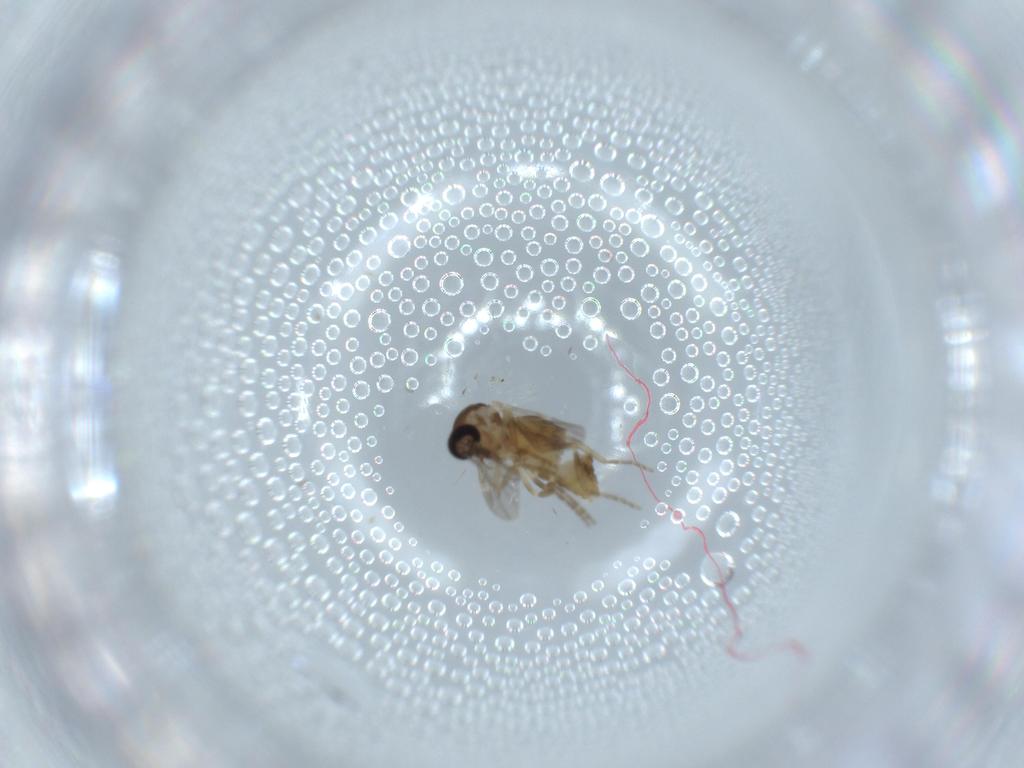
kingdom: Animalia
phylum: Arthropoda
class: Insecta
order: Diptera
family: Ceratopogonidae
